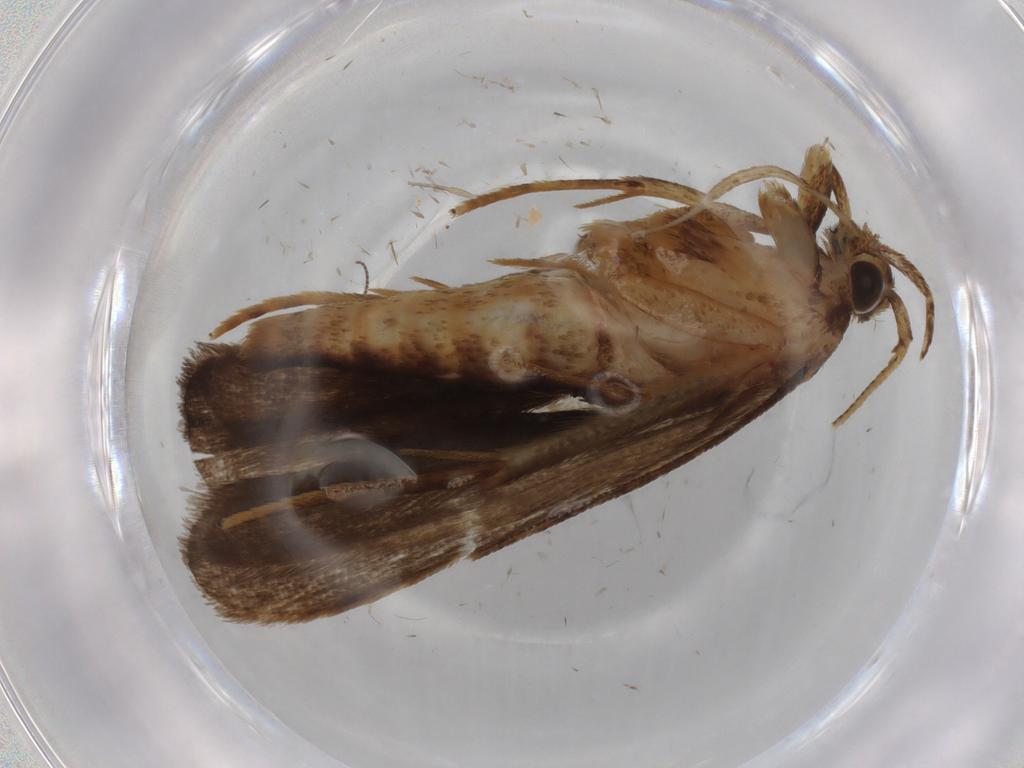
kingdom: Animalia
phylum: Arthropoda
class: Insecta
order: Lepidoptera
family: Autostichidae
